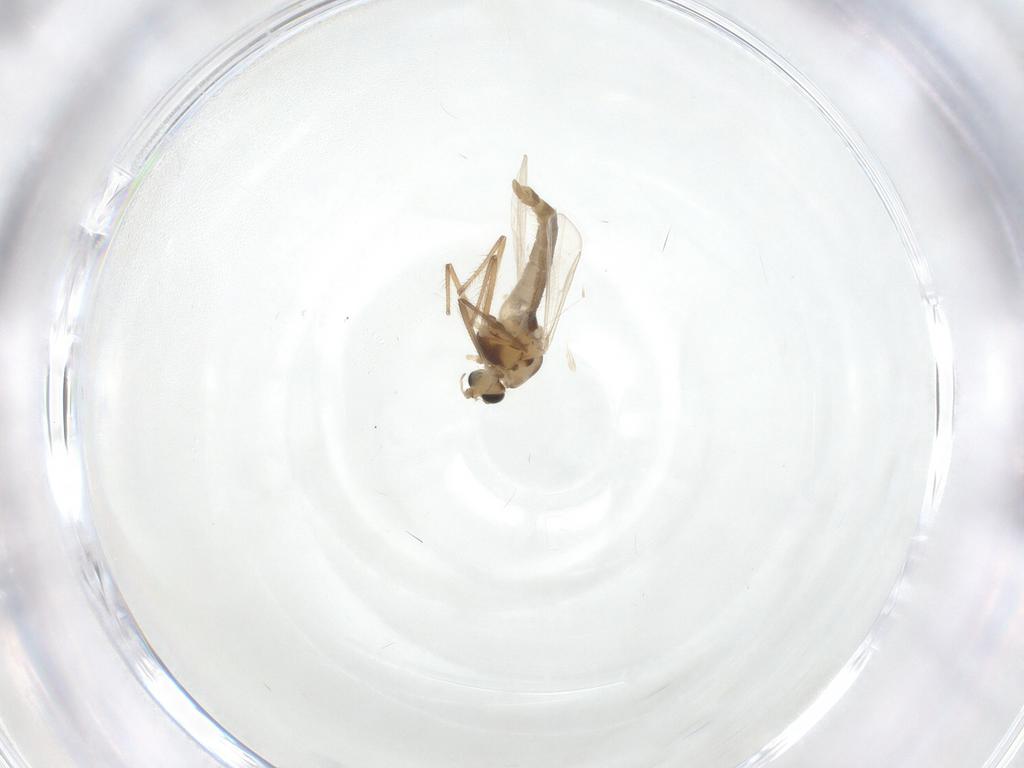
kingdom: Animalia
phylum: Arthropoda
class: Insecta
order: Diptera
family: Chironomidae
